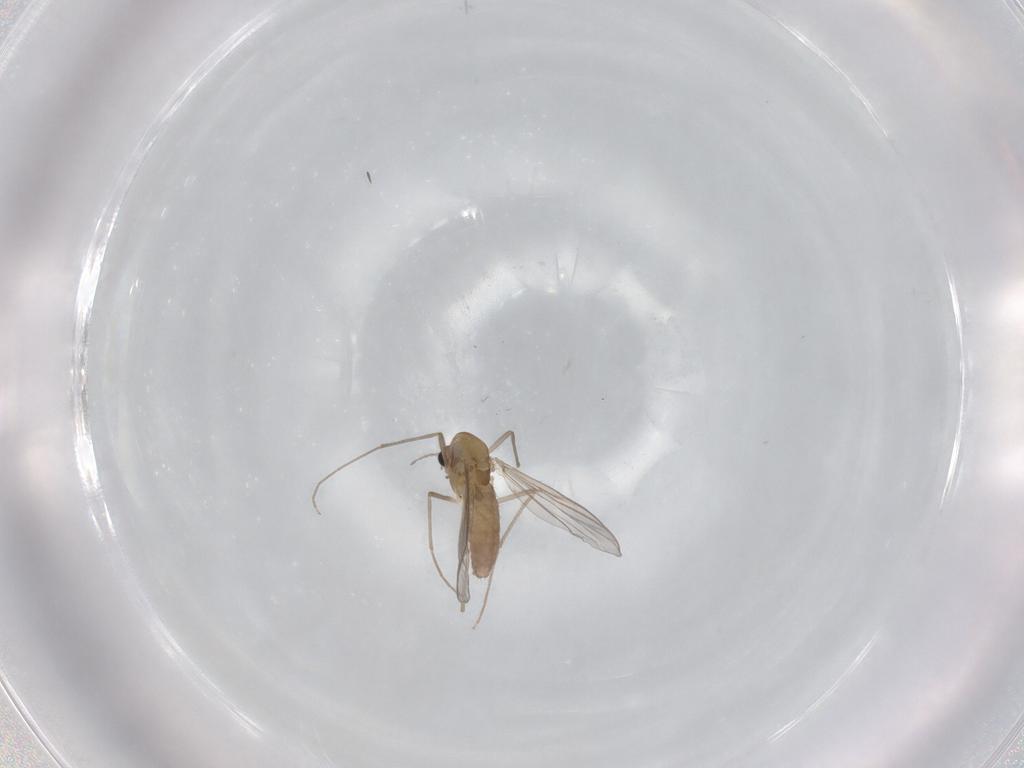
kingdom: Animalia
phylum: Arthropoda
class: Insecta
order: Diptera
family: Chironomidae
